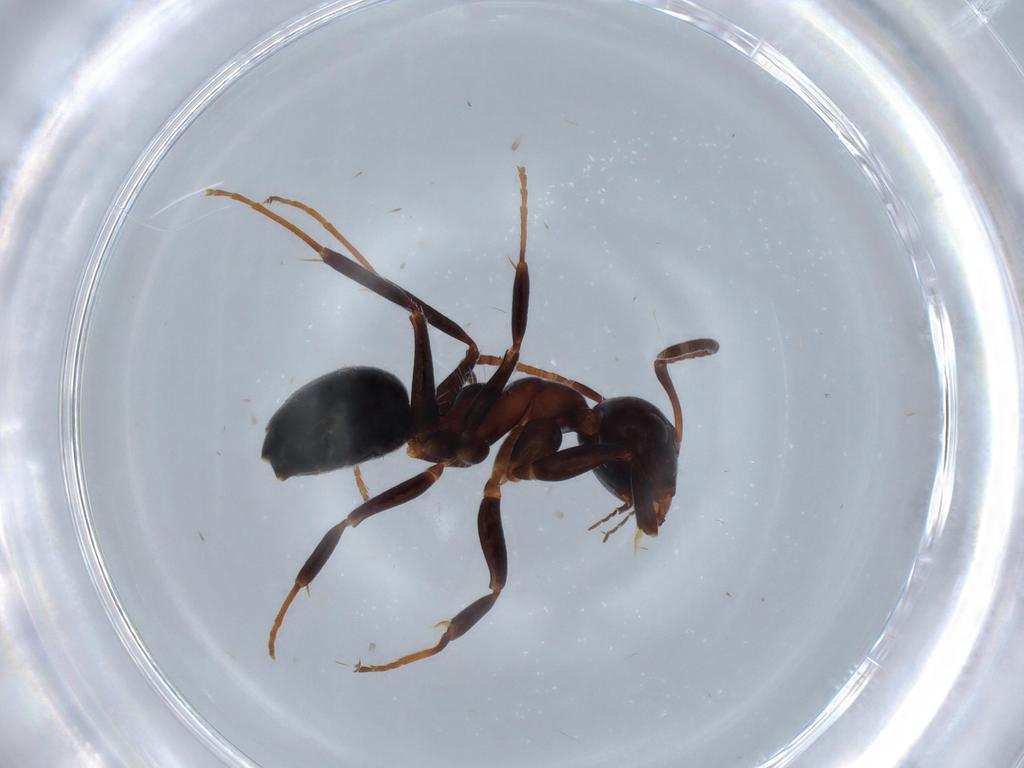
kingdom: Animalia
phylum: Arthropoda
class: Insecta
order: Hymenoptera
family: Formicidae
